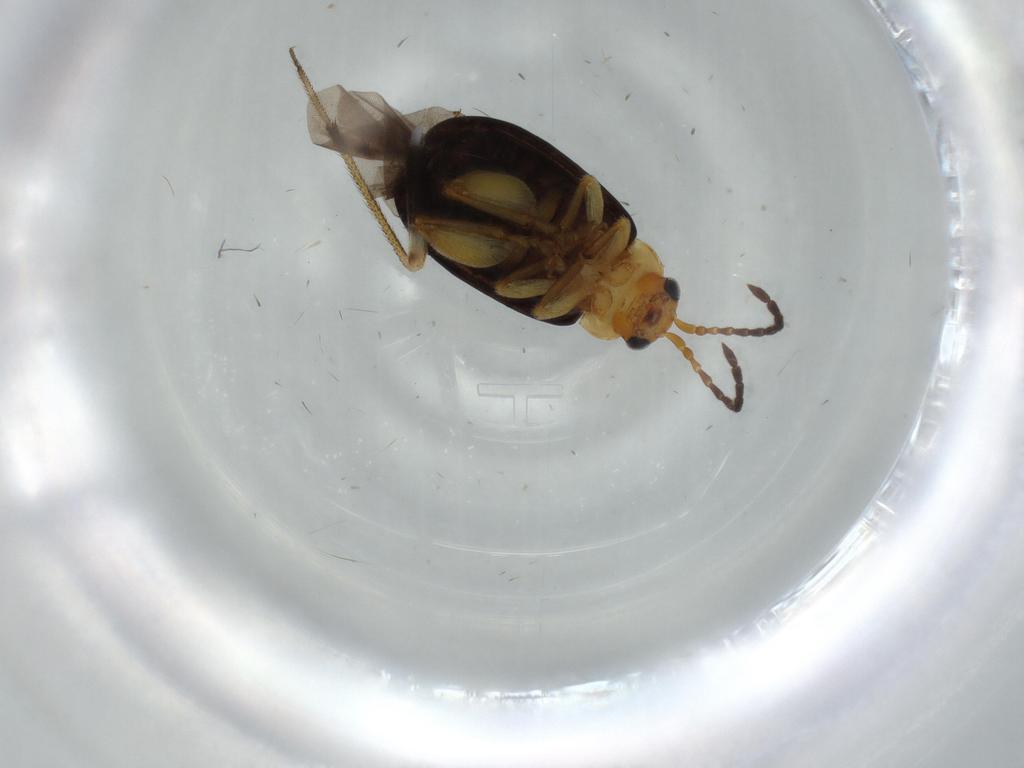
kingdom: Animalia
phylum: Arthropoda
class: Insecta
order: Coleoptera
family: Chrysomelidae
